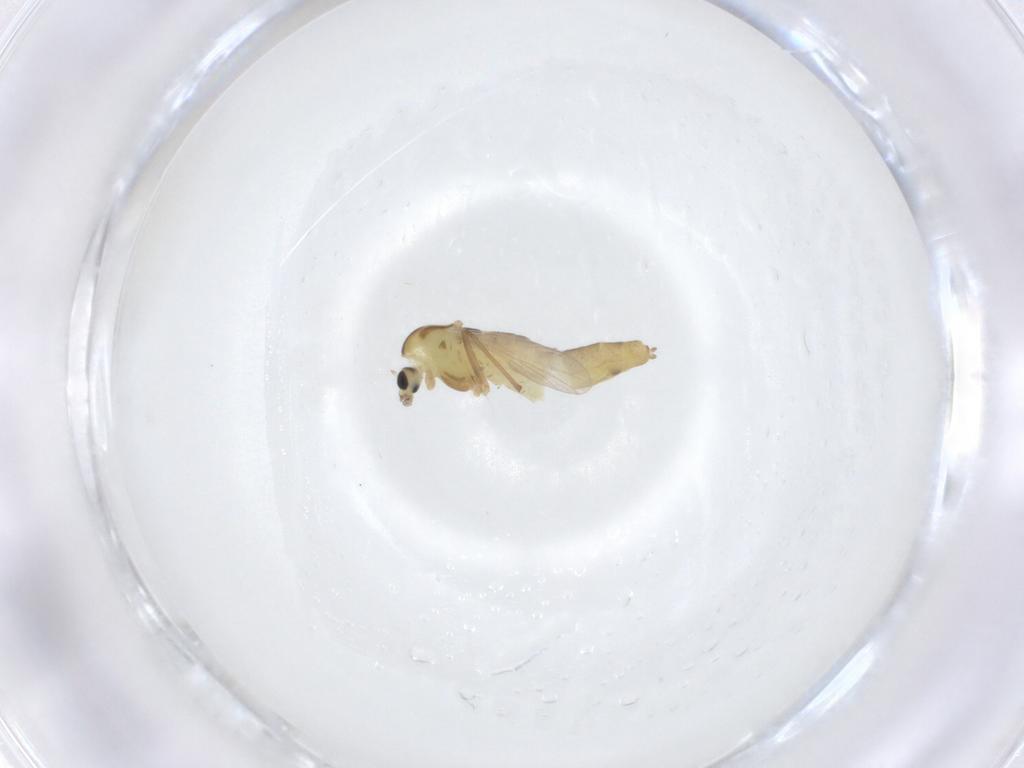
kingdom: Animalia
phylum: Arthropoda
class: Insecta
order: Diptera
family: Chironomidae
